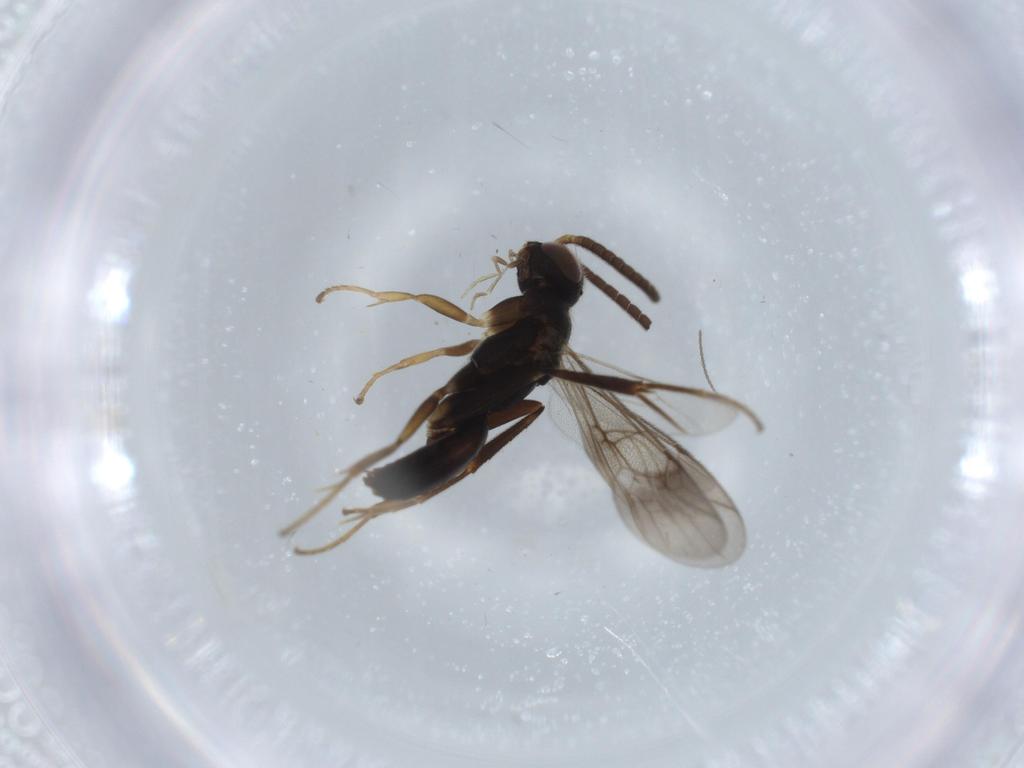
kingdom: Animalia
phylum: Arthropoda
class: Insecta
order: Hymenoptera
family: Pompilidae
